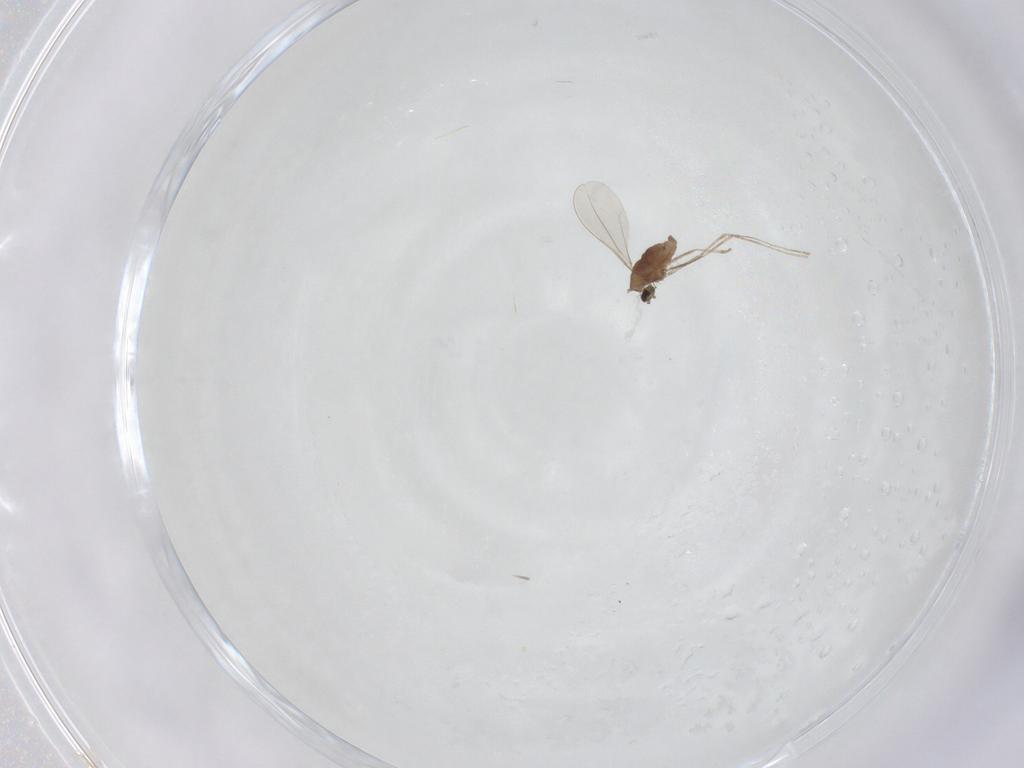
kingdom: Animalia
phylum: Arthropoda
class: Insecta
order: Diptera
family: Cecidomyiidae
